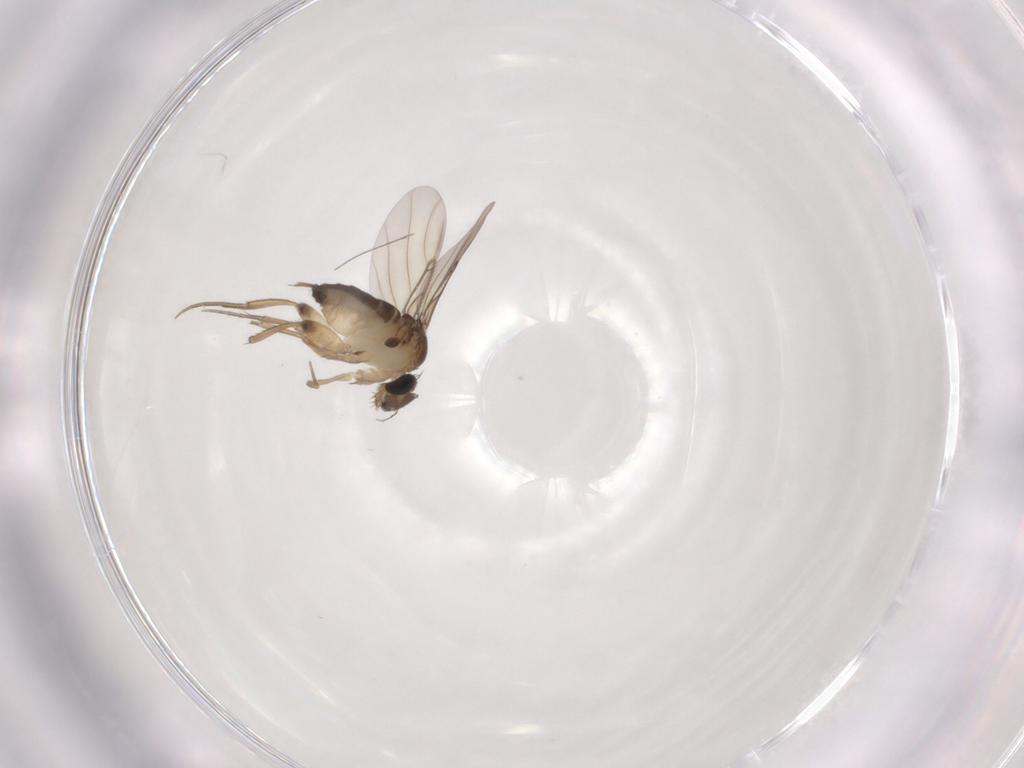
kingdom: Animalia
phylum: Arthropoda
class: Insecta
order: Diptera
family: Phoridae
